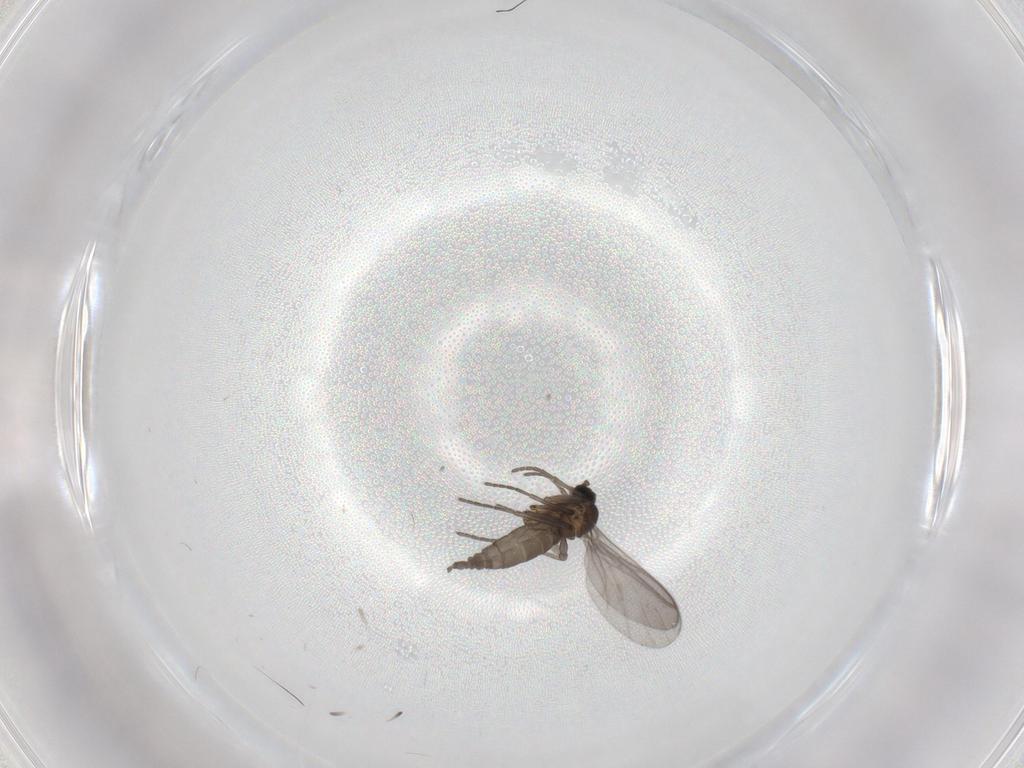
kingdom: Animalia
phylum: Arthropoda
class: Insecta
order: Diptera
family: Sciaridae
